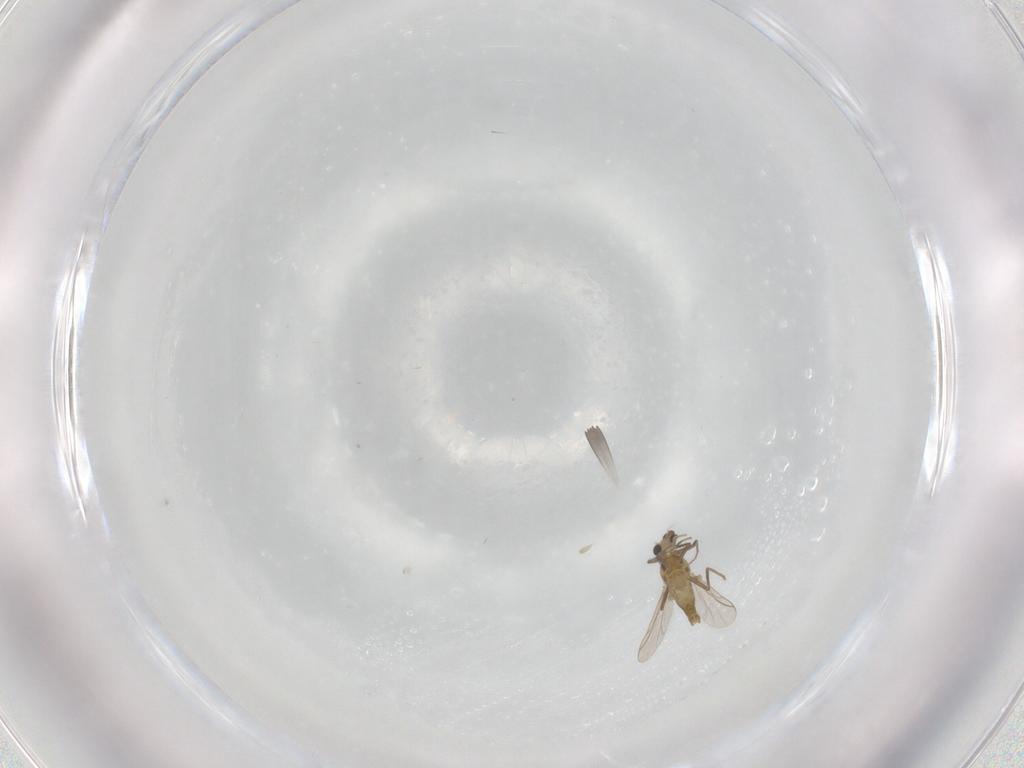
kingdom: Animalia
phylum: Arthropoda
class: Insecta
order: Diptera
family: Chironomidae
